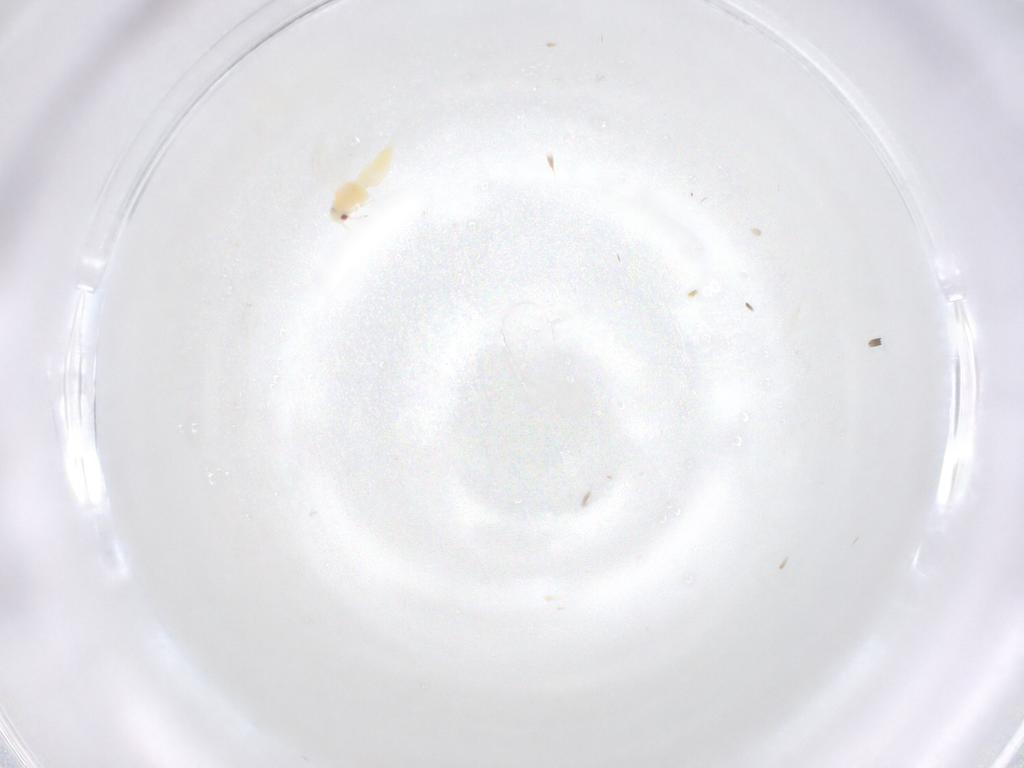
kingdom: Animalia
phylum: Arthropoda
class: Insecta
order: Hemiptera
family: Aleyrodidae
